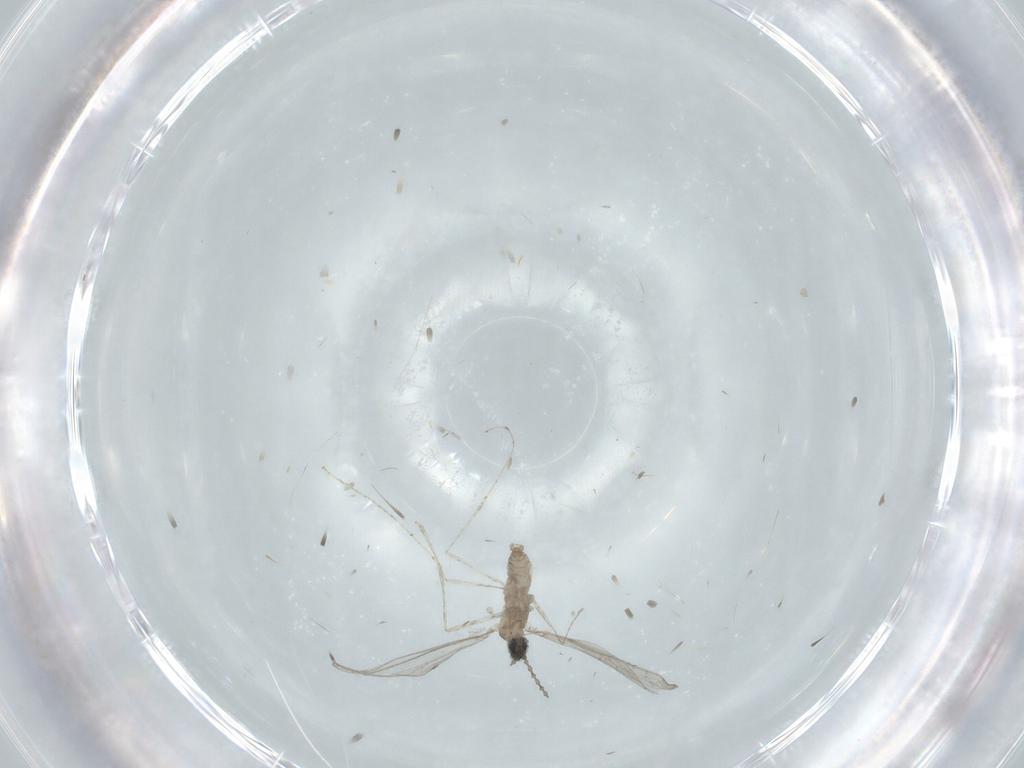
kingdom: Animalia
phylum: Arthropoda
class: Insecta
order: Diptera
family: Cecidomyiidae
